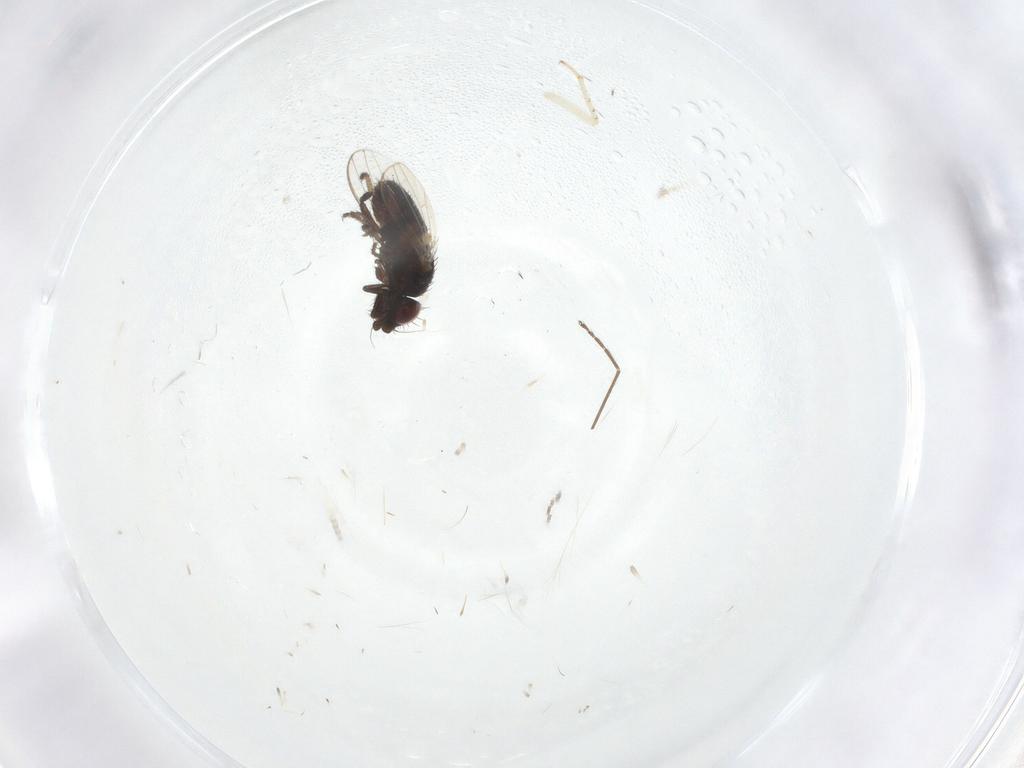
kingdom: Animalia
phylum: Arthropoda
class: Insecta
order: Diptera
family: Milichiidae
